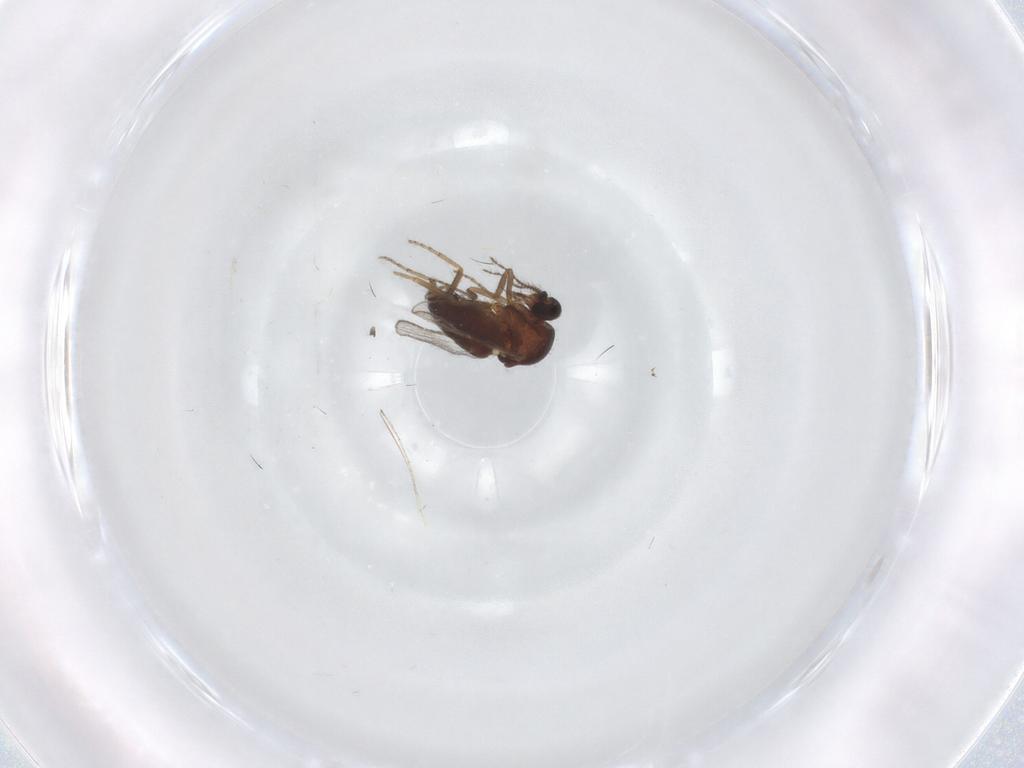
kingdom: Animalia
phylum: Arthropoda
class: Insecta
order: Diptera
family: Ceratopogonidae
